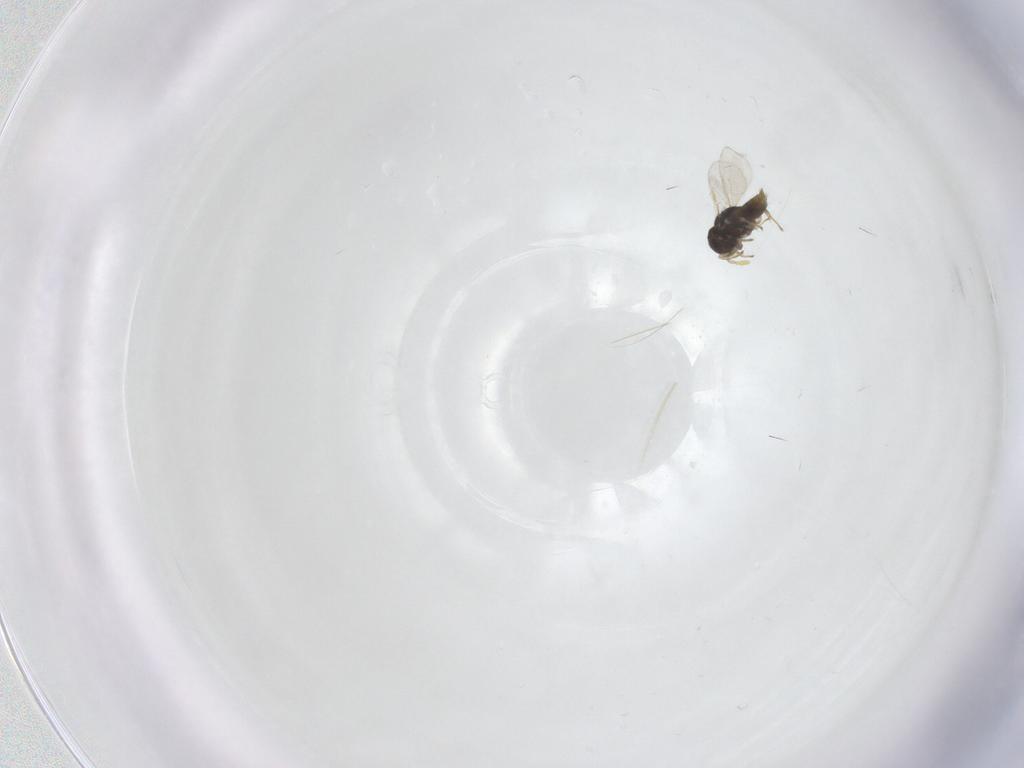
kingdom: Animalia
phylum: Arthropoda
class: Insecta
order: Hymenoptera
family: Aphelinidae
